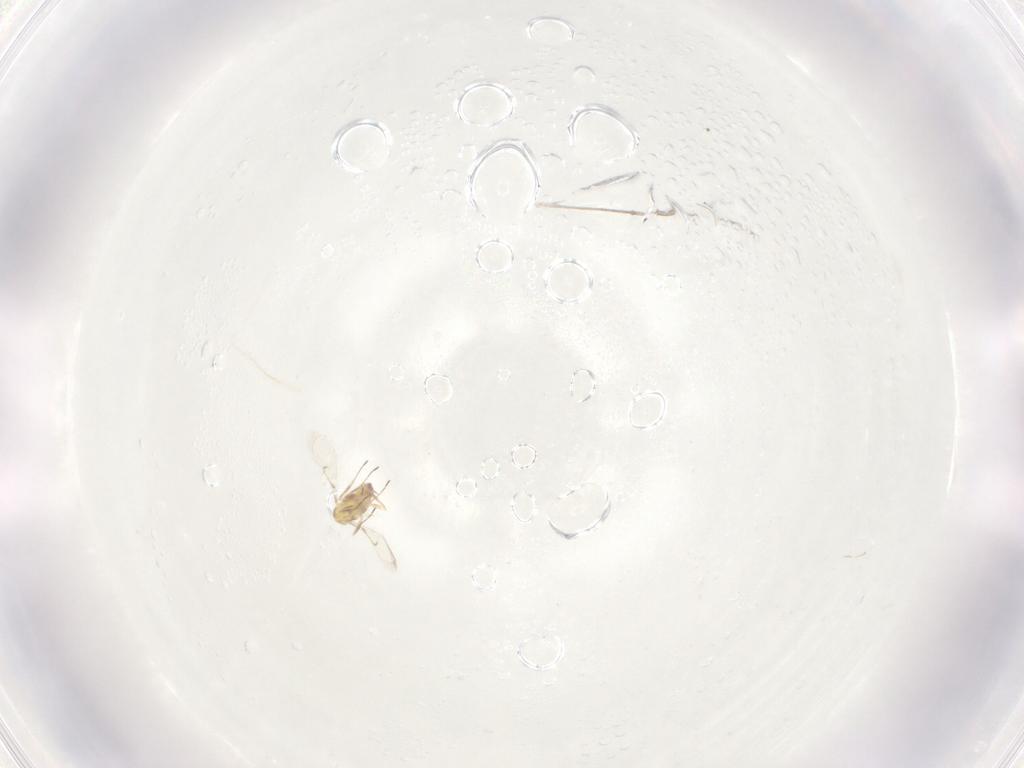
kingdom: Animalia
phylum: Arthropoda
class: Insecta
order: Hymenoptera
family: Trichogrammatidae
